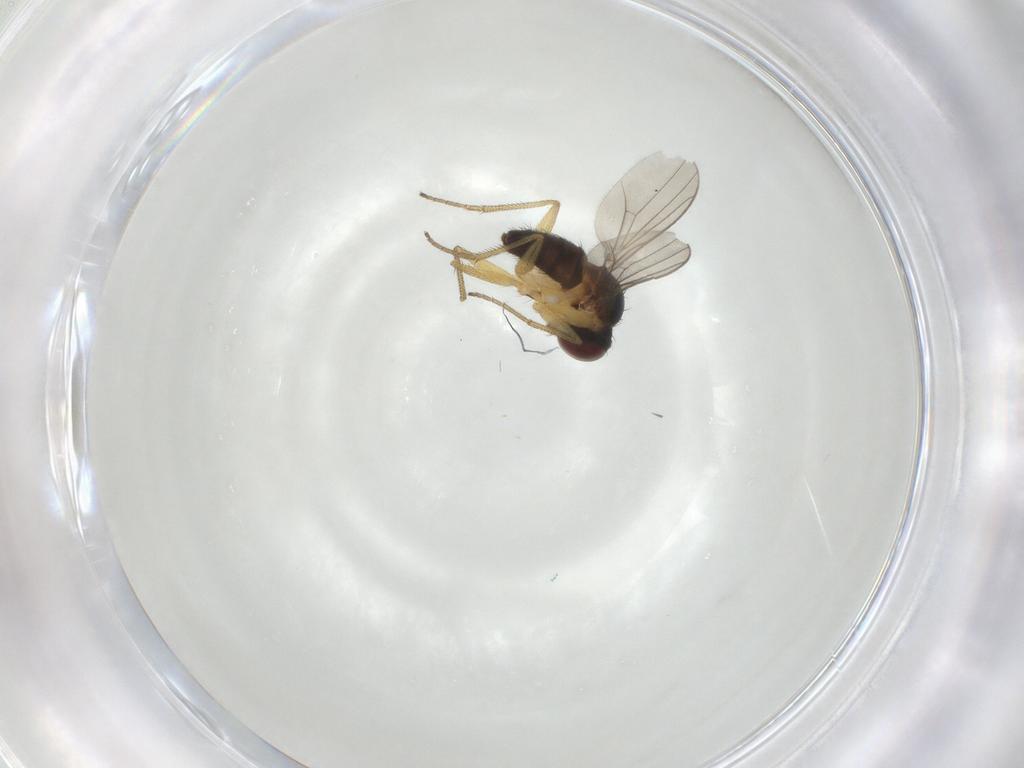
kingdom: Animalia
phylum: Arthropoda
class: Insecta
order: Diptera
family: Dolichopodidae
